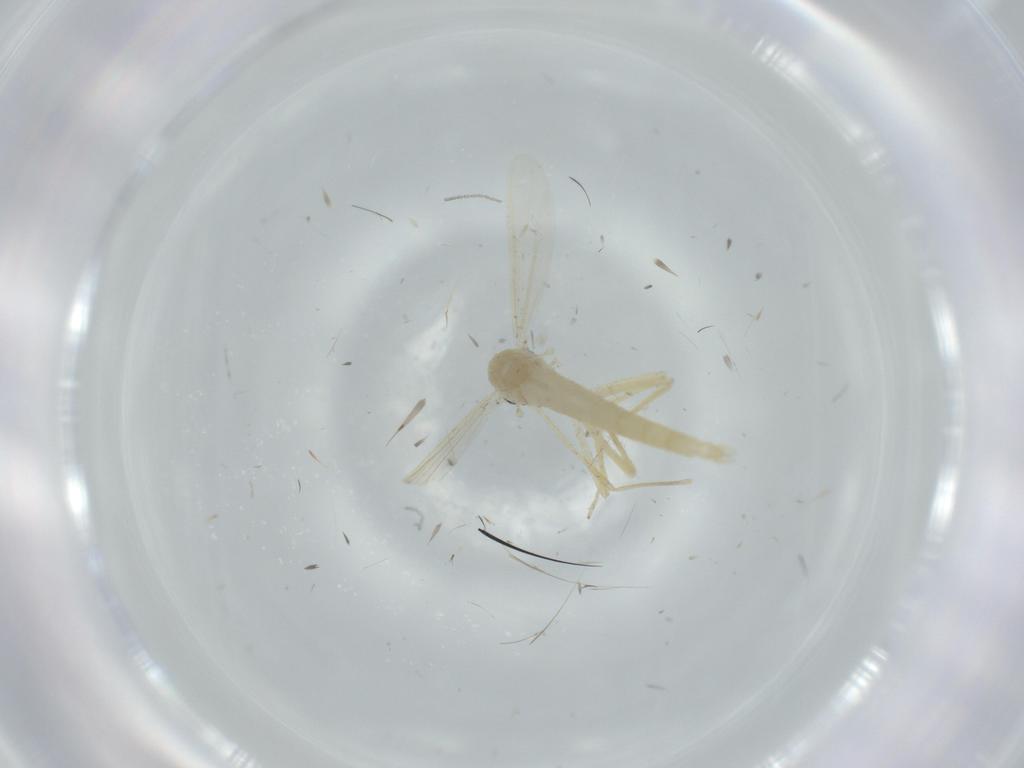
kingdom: Animalia
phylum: Arthropoda
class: Insecta
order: Diptera
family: Chironomidae
